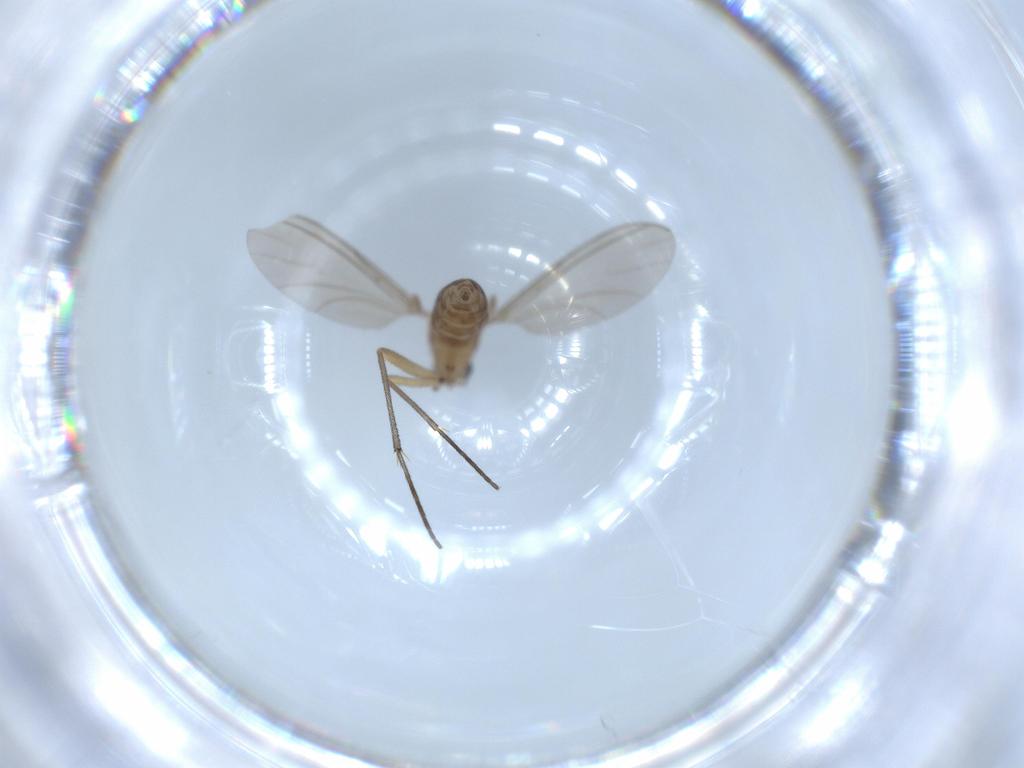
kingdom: Animalia
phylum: Arthropoda
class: Insecta
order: Diptera
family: Sciaridae
